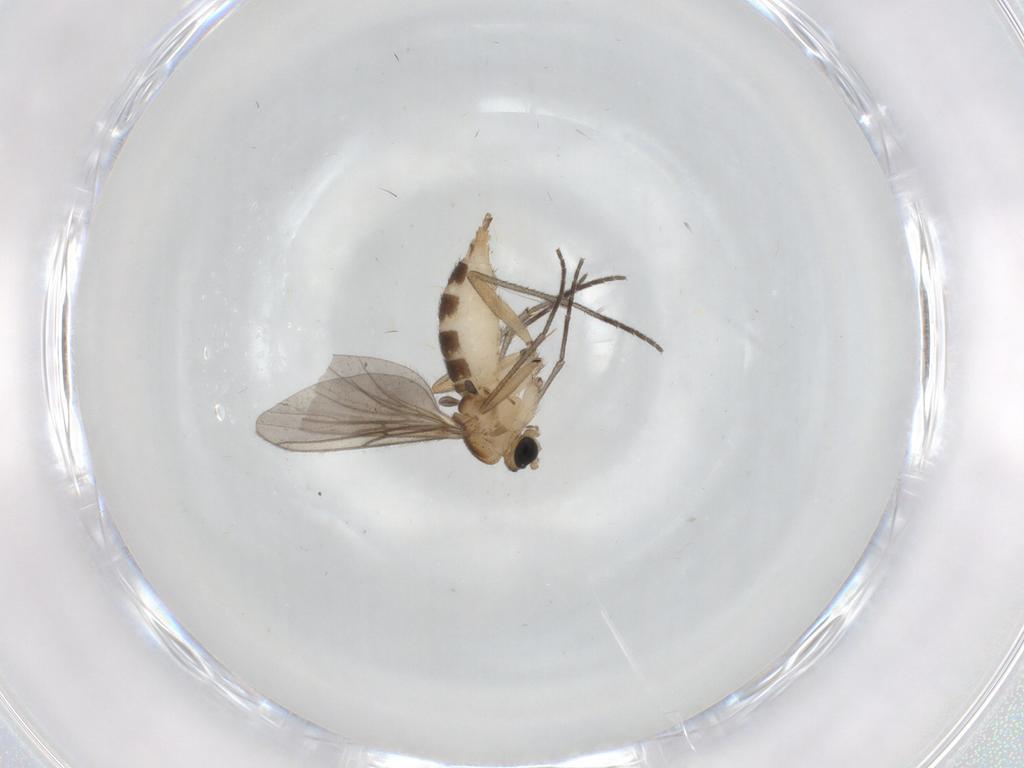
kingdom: Animalia
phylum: Arthropoda
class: Insecta
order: Diptera
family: Sciaridae
